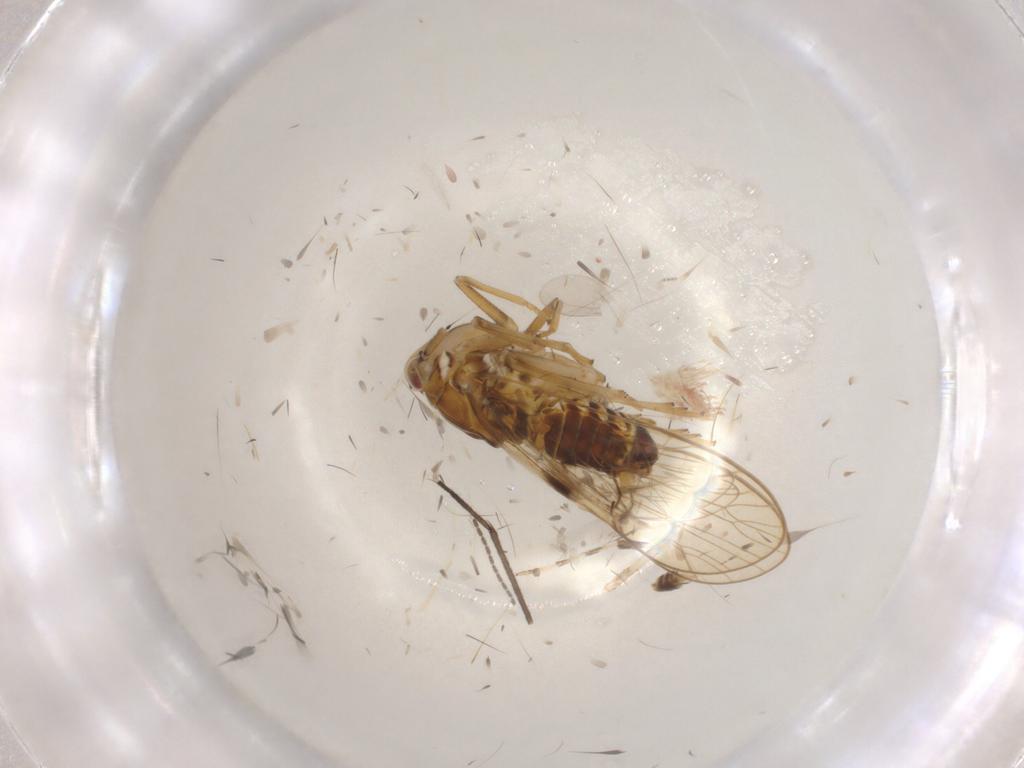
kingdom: Animalia
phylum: Arthropoda
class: Insecta
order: Hemiptera
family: Delphacidae
